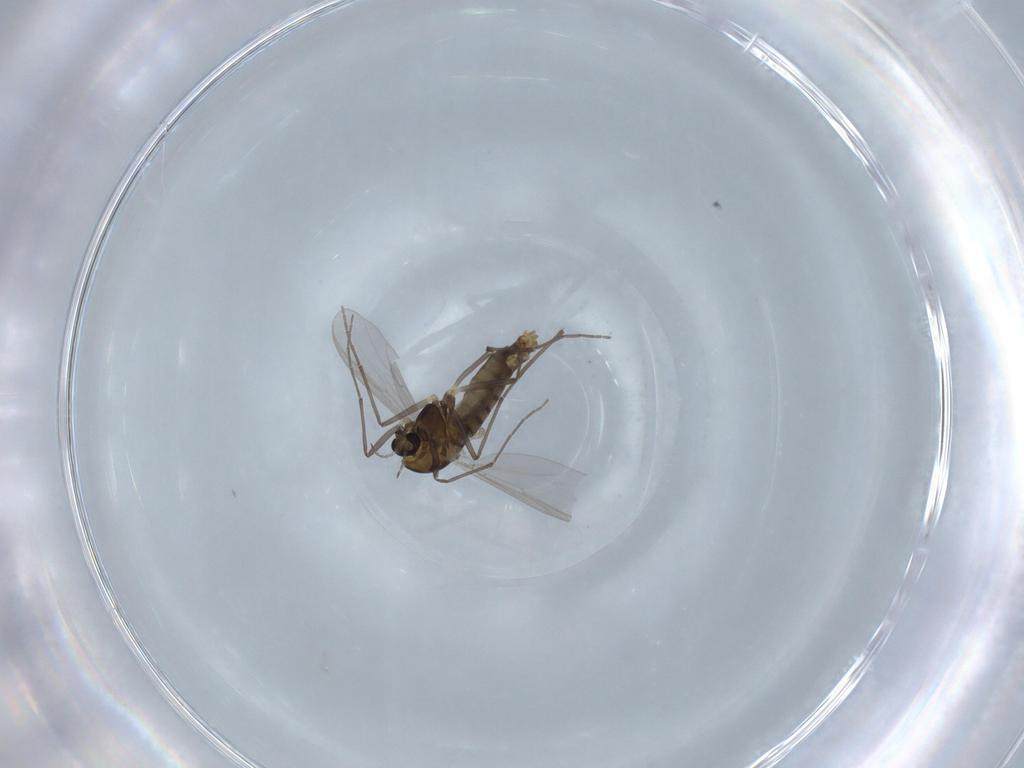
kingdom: Animalia
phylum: Arthropoda
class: Insecta
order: Diptera
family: Chironomidae
